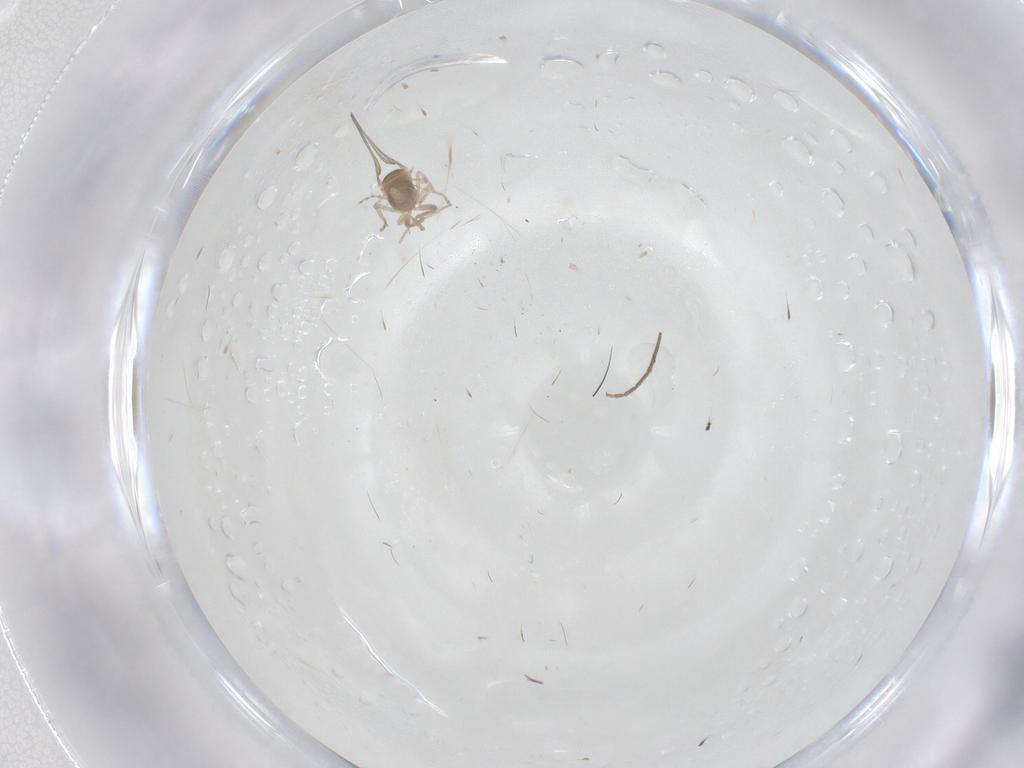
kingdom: Animalia
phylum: Arthropoda
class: Insecta
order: Diptera
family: Cecidomyiidae
